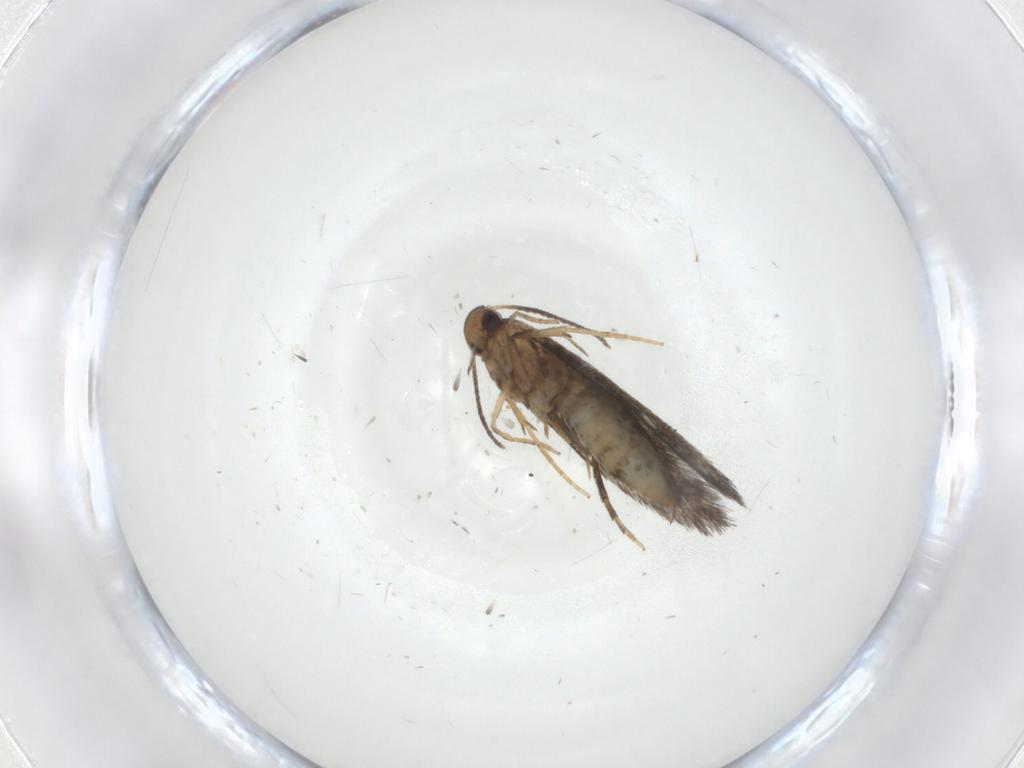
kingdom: Animalia
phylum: Arthropoda
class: Insecta
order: Lepidoptera
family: Heliozelidae
